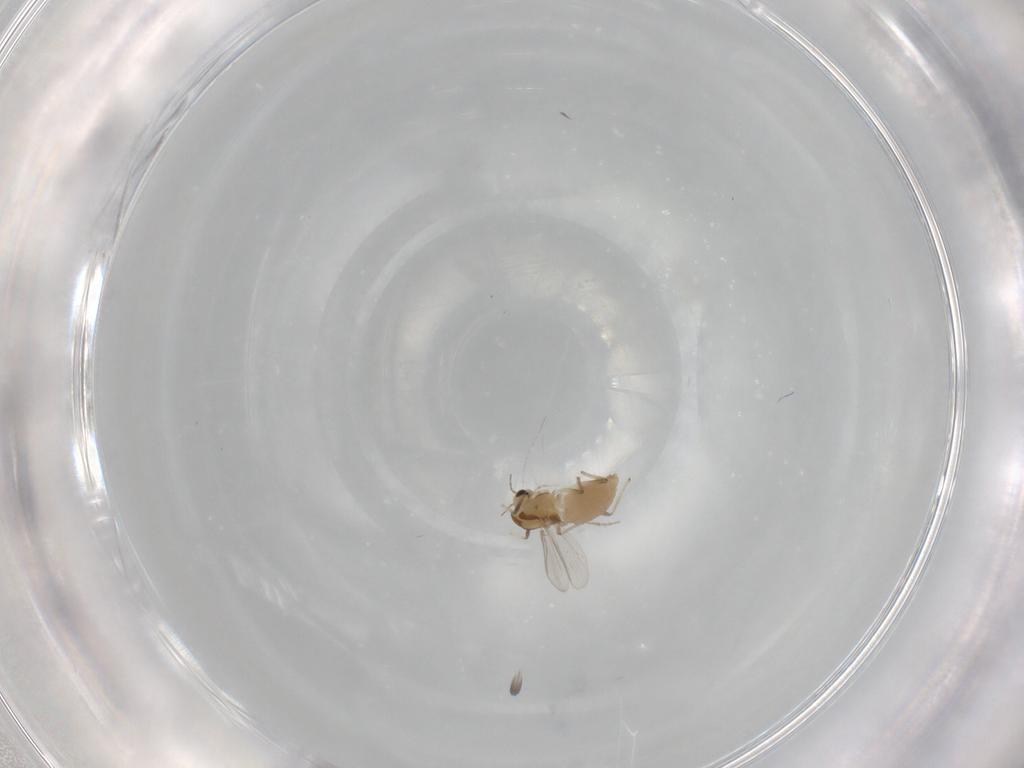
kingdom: Animalia
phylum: Arthropoda
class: Insecta
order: Diptera
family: Chironomidae
